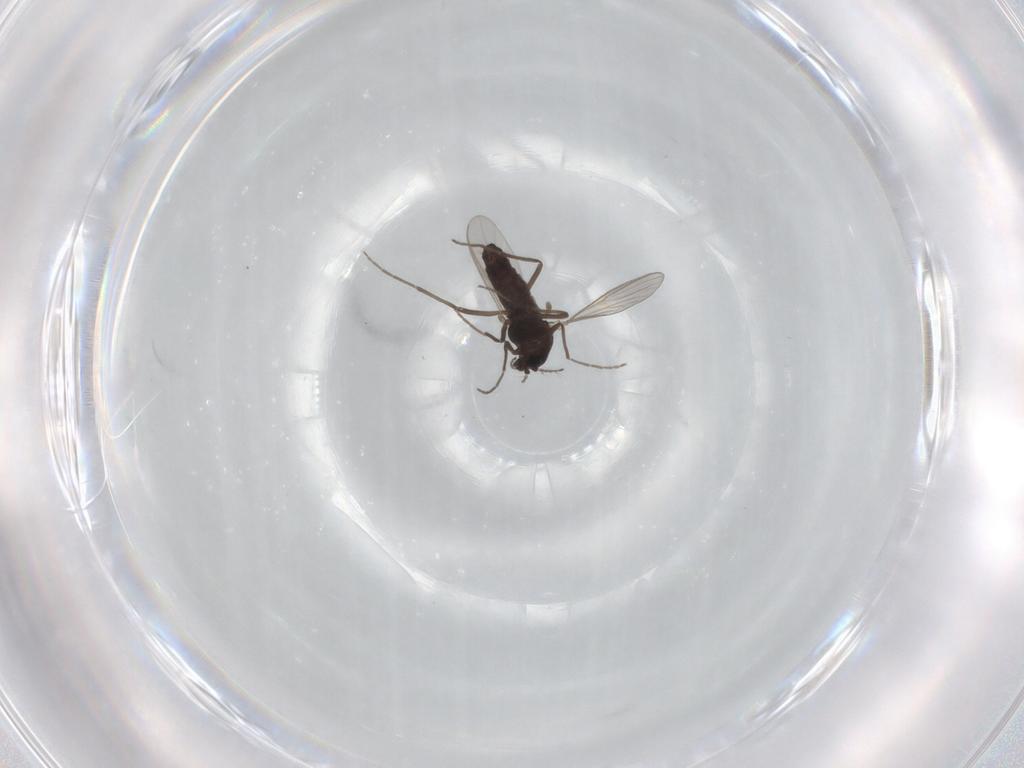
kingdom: Animalia
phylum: Arthropoda
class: Insecta
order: Diptera
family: Chironomidae
